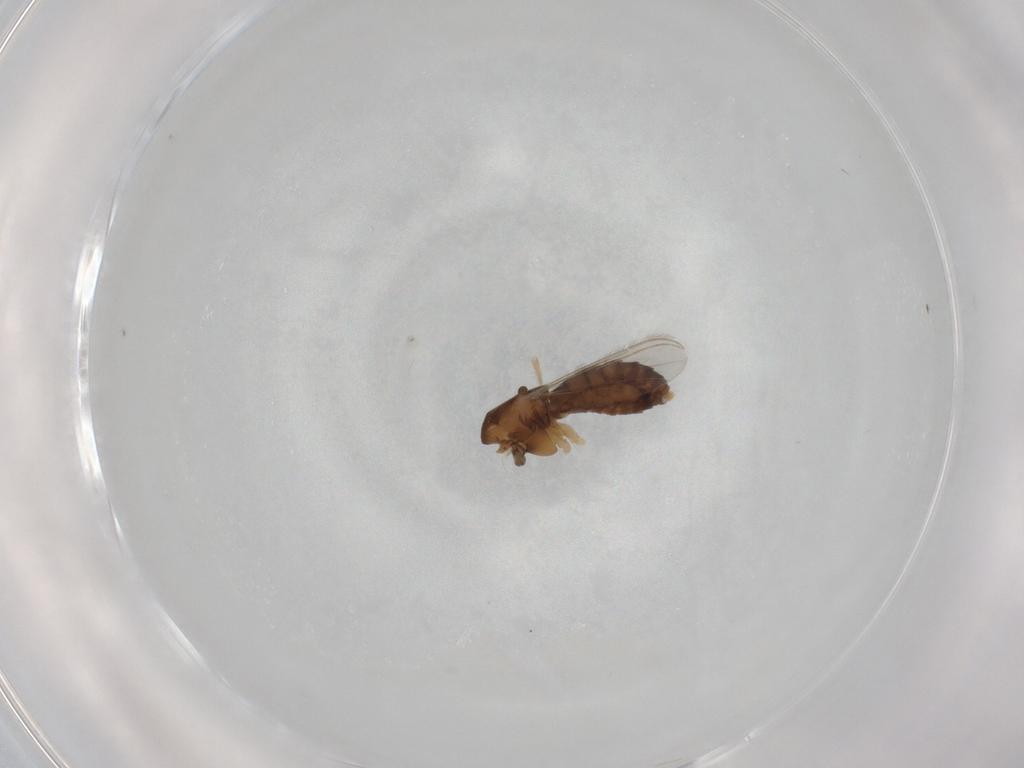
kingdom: Animalia
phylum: Arthropoda
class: Insecta
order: Diptera
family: Chironomidae
